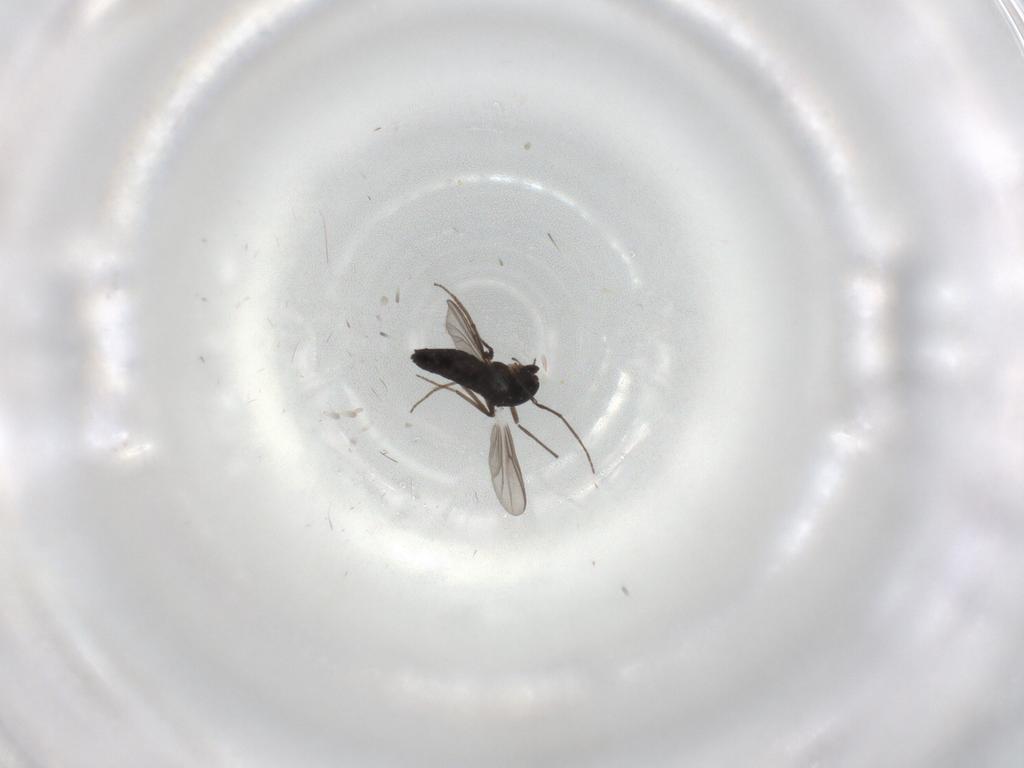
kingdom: Animalia
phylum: Arthropoda
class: Insecta
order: Diptera
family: Chironomidae
